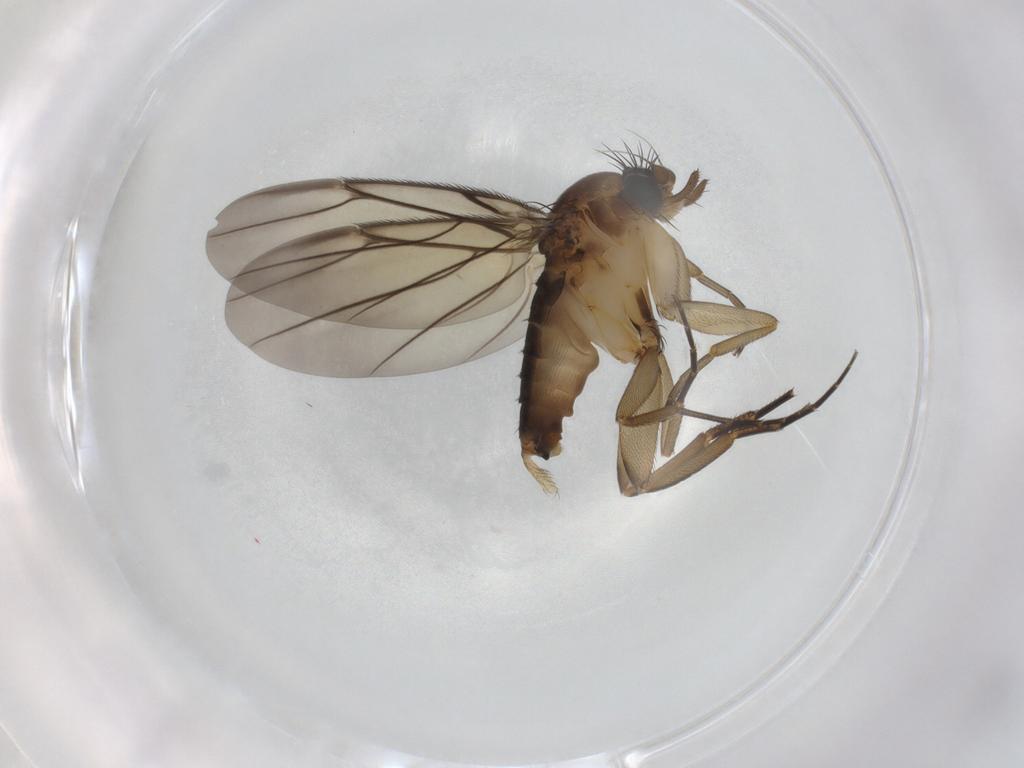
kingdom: Animalia
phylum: Arthropoda
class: Insecta
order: Diptera
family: Phoridae
